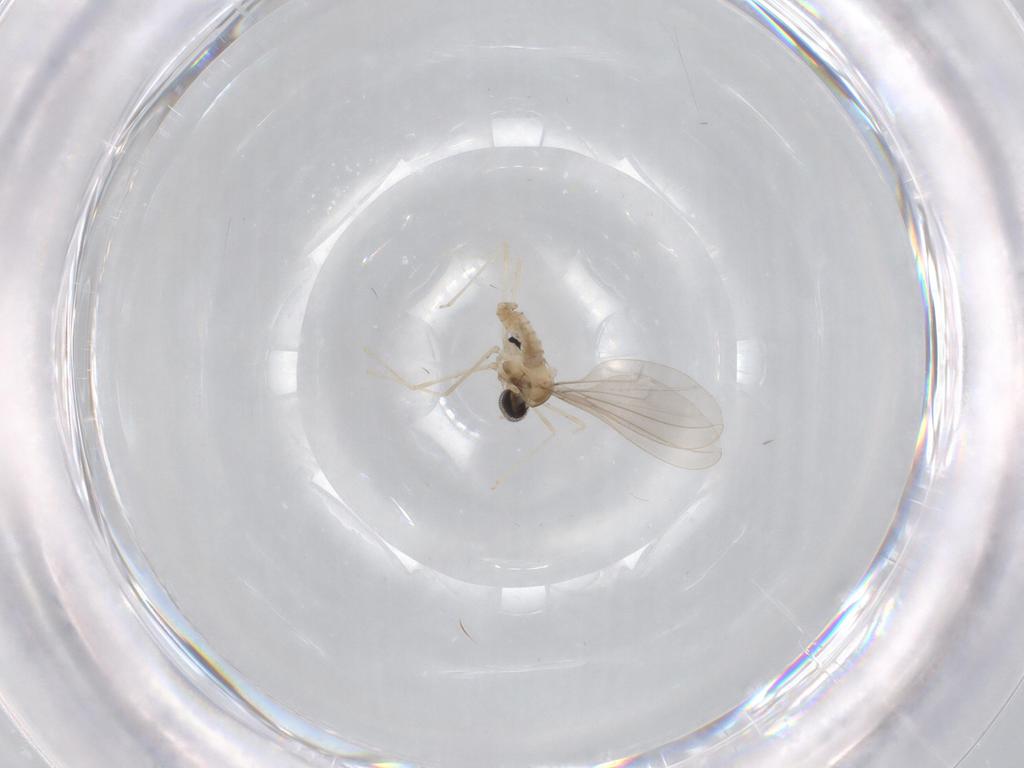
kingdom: Animalia
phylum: Arthropoda
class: Insecta
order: Diptera
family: Cecidomyiidae
